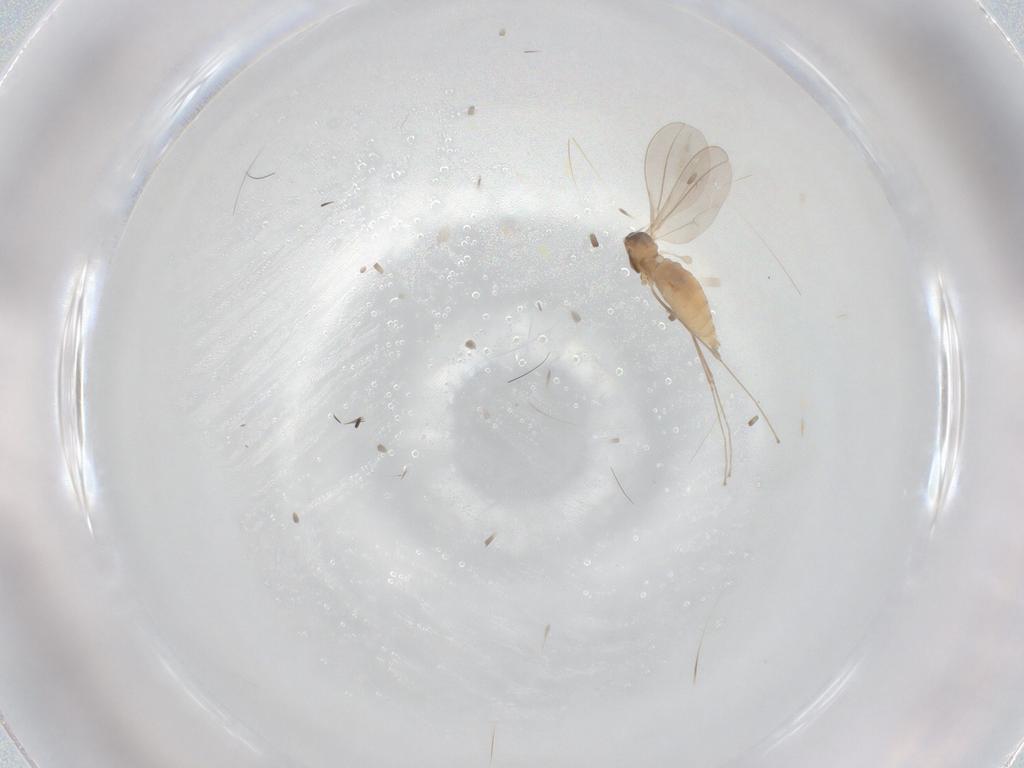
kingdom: Animalia
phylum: Arthropoda
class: Insecta
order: Diptera
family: Cecidomyiidae
